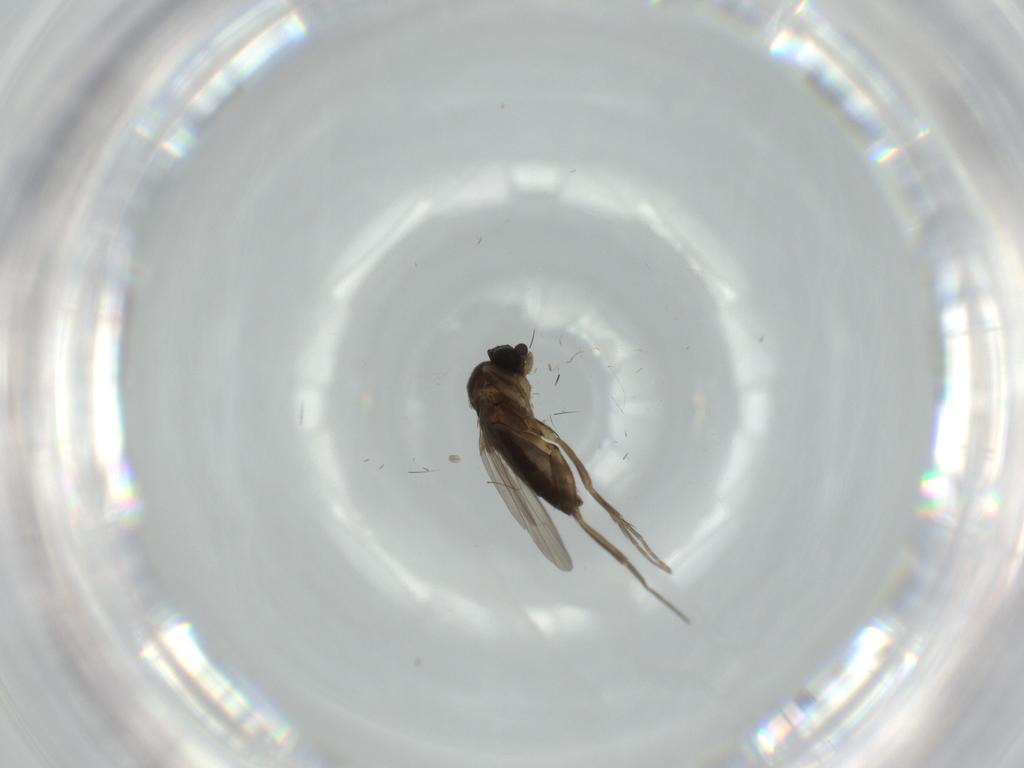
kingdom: Animalia
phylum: Arthropoda
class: Insecta
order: Diptera
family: Phoridae
